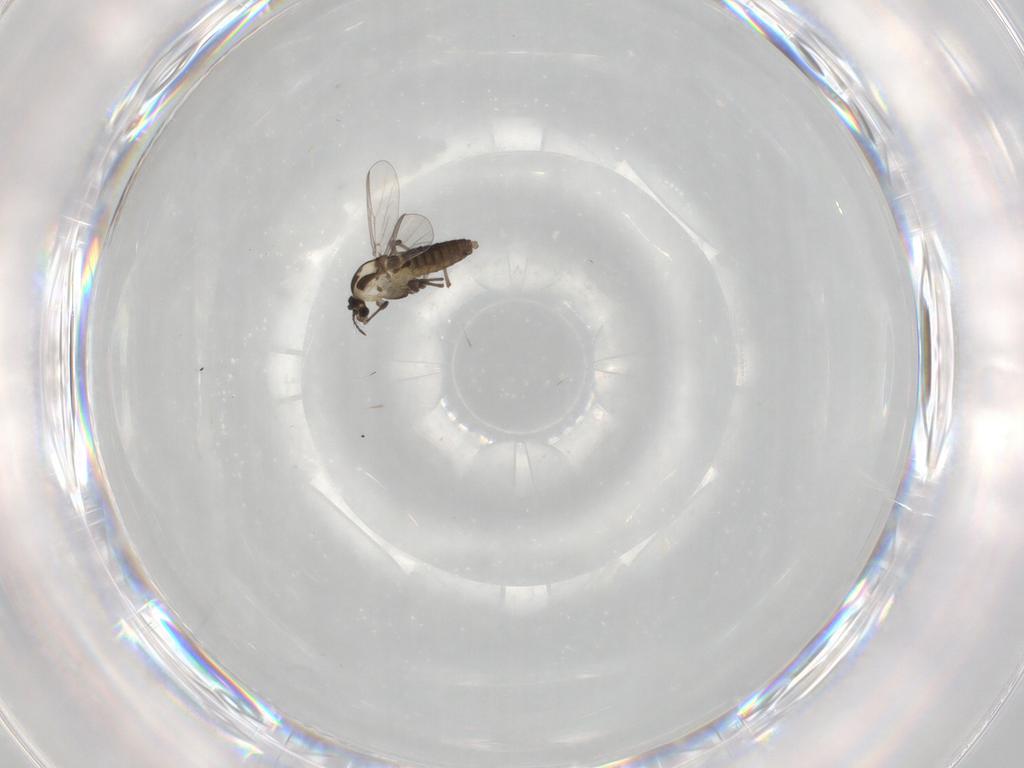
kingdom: Animalia
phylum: Arthropoda
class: Insecta
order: Diptera
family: Chironomidae
